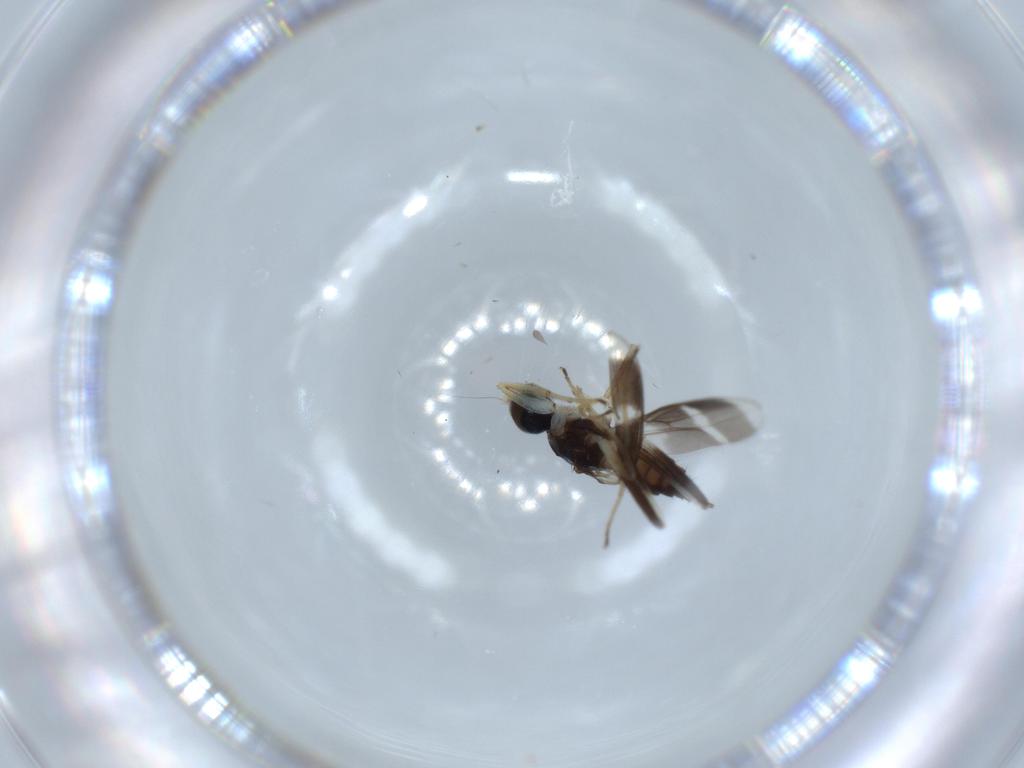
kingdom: Animalia
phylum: Arthropoda
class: Insecta
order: Diptera
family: Hybotidae
